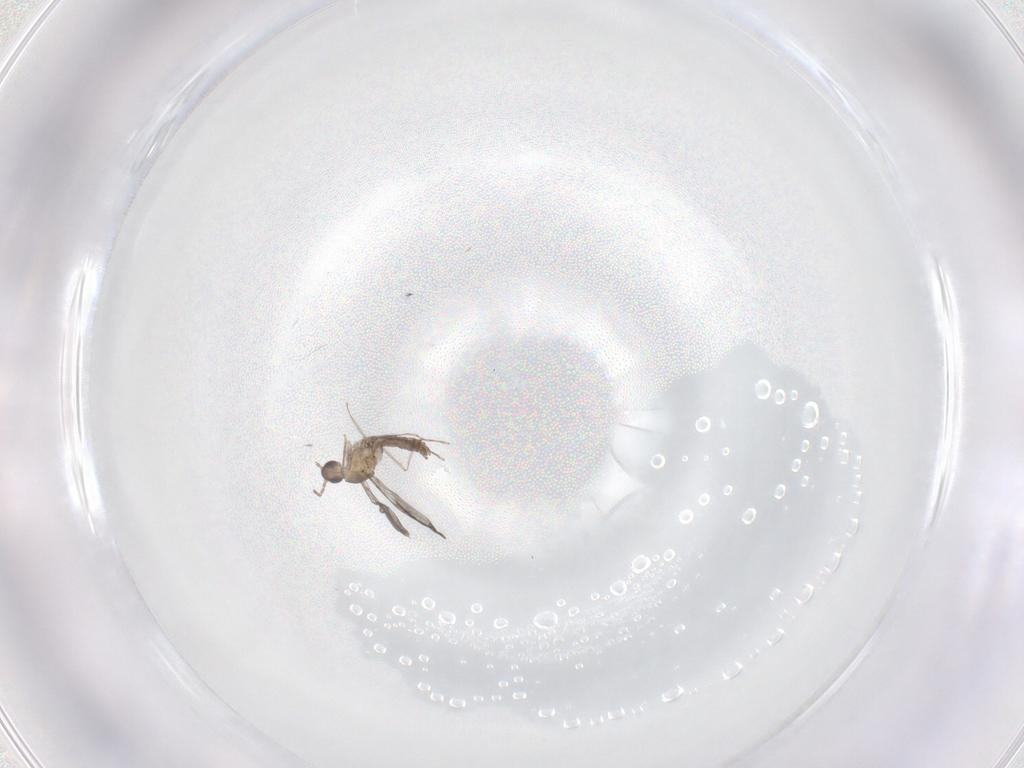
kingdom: Animalia
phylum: Arthropoda
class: Insecta
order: Diptera
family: Cecidomyiidae
